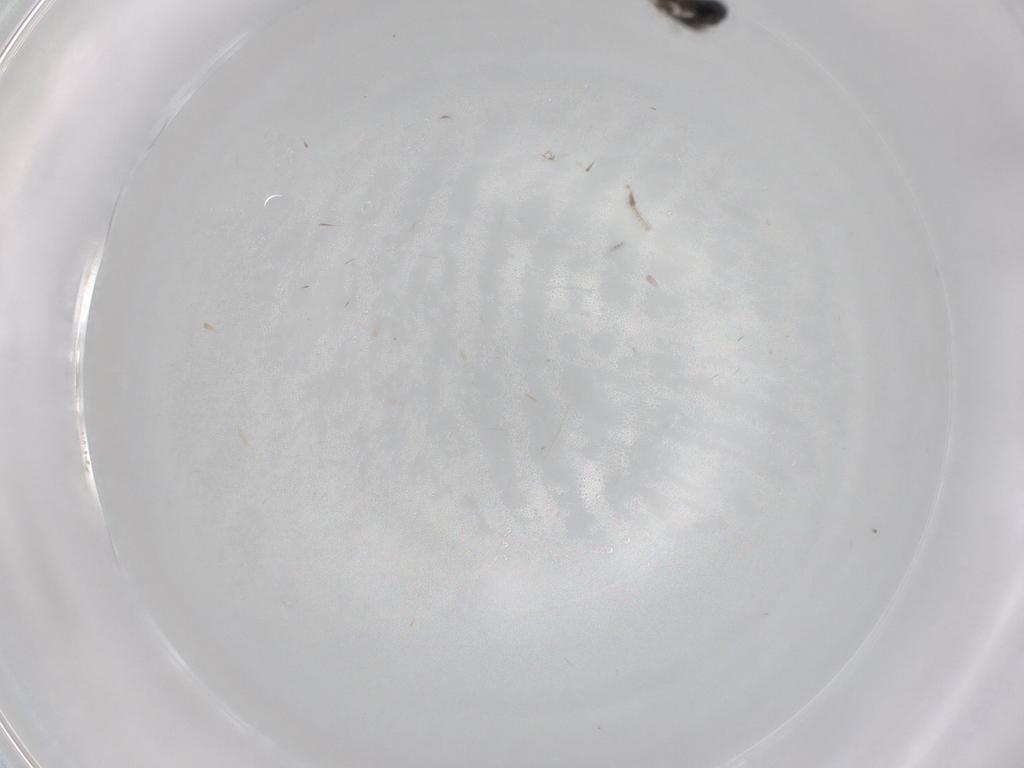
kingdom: Animalia
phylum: Arthropoda
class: Insecta
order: Hymenoptera
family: Scelionidae
